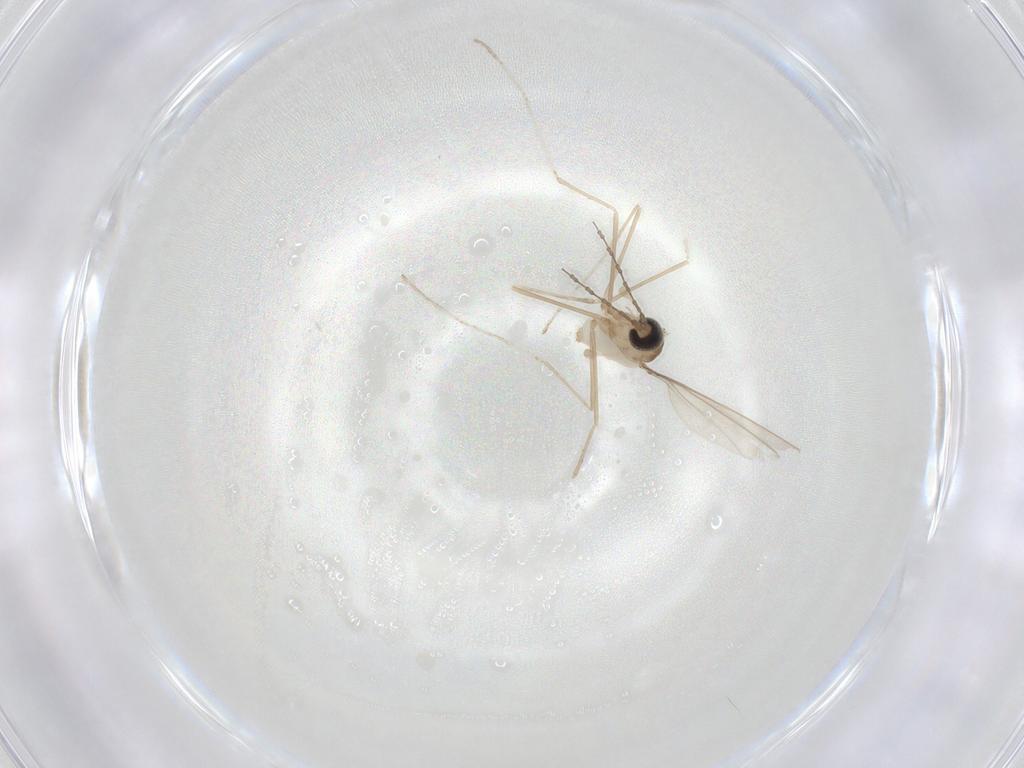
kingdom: Animalia
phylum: Arthropoda
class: Insecta
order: Diptera
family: Cecidomyiidae
